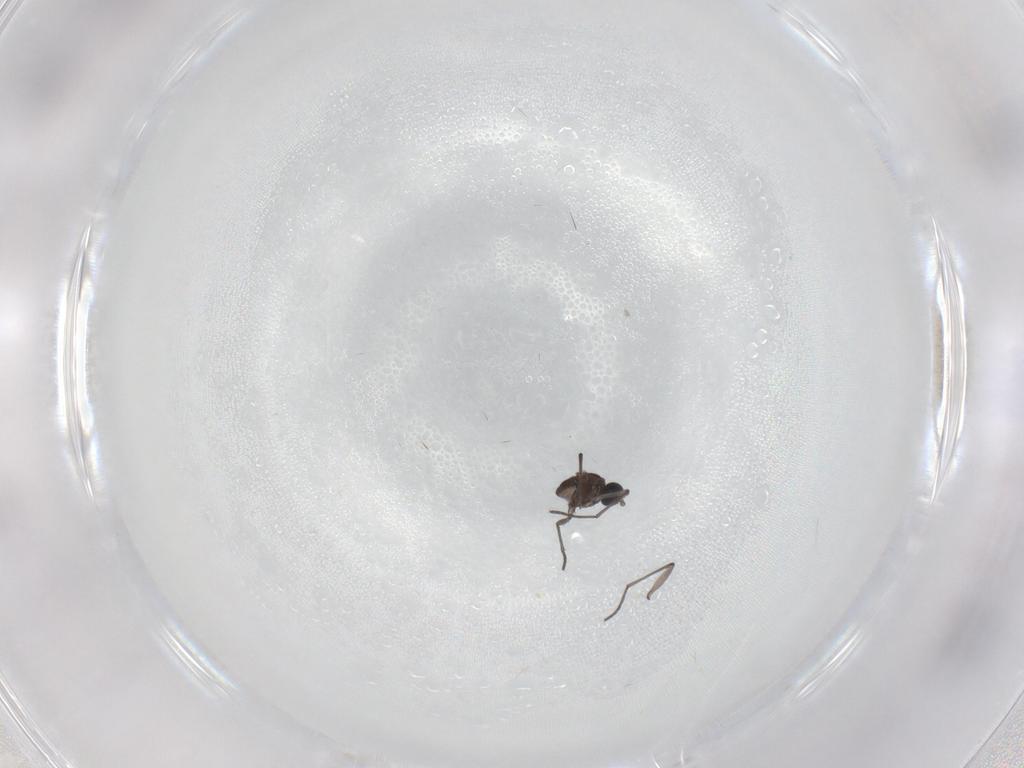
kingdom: Animalia
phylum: Arthropoda
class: Insecta
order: Diptera
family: Sciaridae
